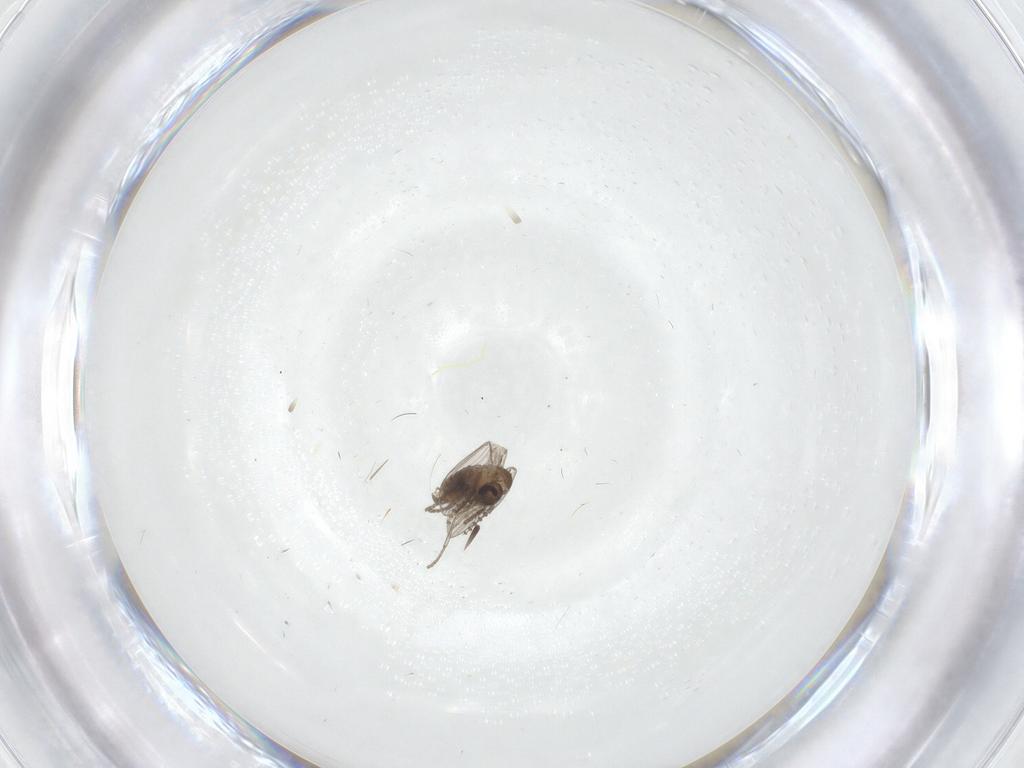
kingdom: Animalia
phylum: Arthropoda
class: Insecta
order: Diptera
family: Psychodidae
